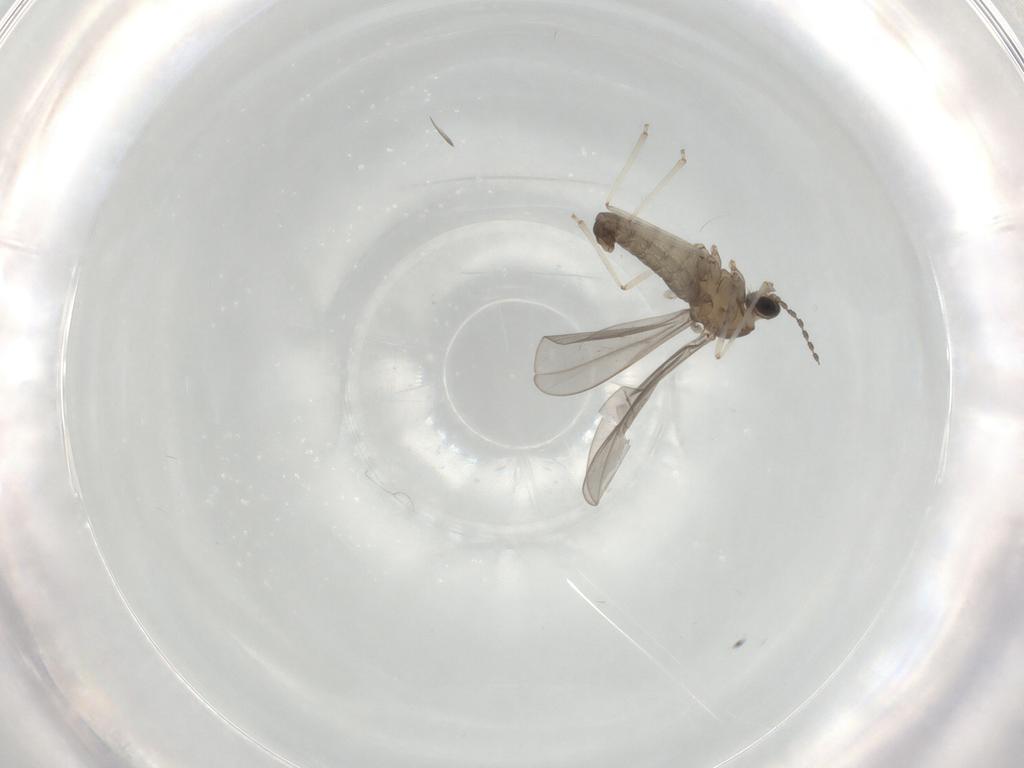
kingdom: Animalia
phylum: Arthropoda
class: Insecta
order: Diptera
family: Cecidomyiidae
